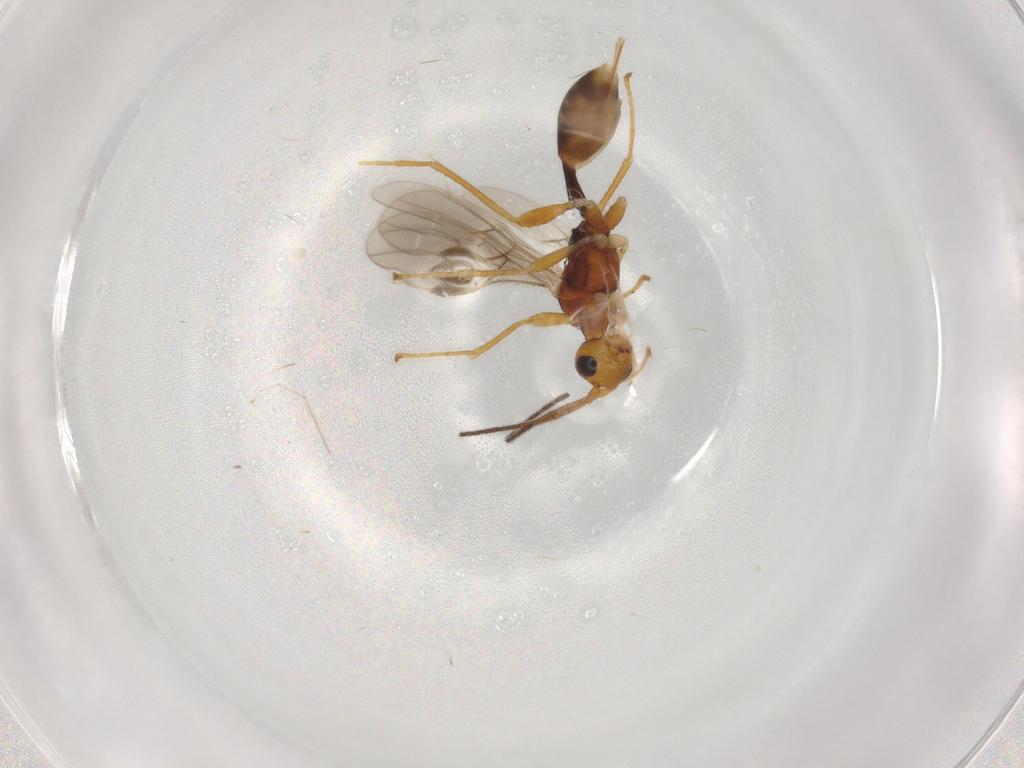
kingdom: Animalia
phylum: Arthropoda
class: Insecta
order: Hymenoptera
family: Braconidae
